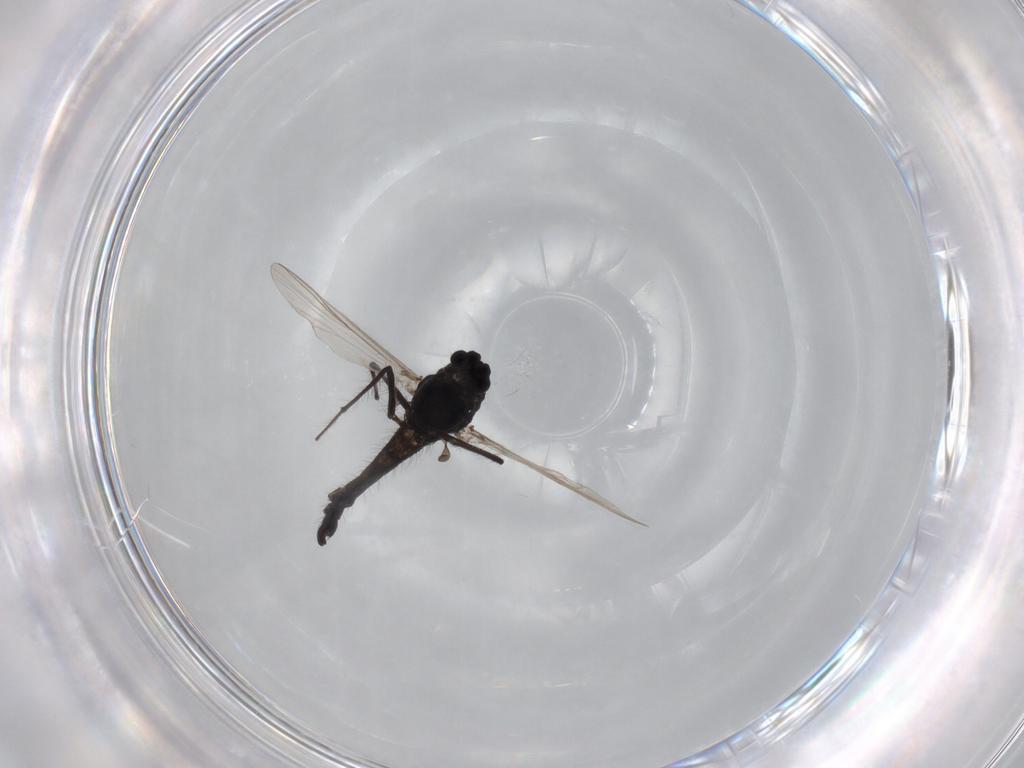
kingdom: Animalia
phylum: Arthropoda
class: Insecta
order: Diptera
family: Chironomidae
